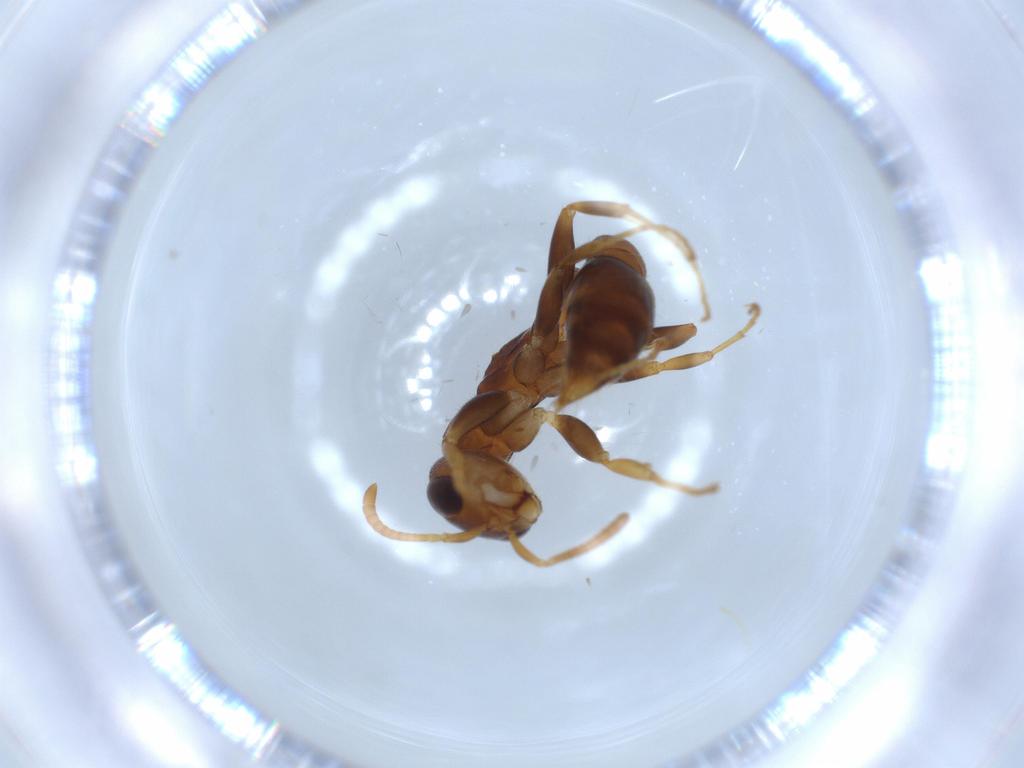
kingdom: Animalia
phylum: Arthropoda
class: Insecta
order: Hymenoptera
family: Formicidae
